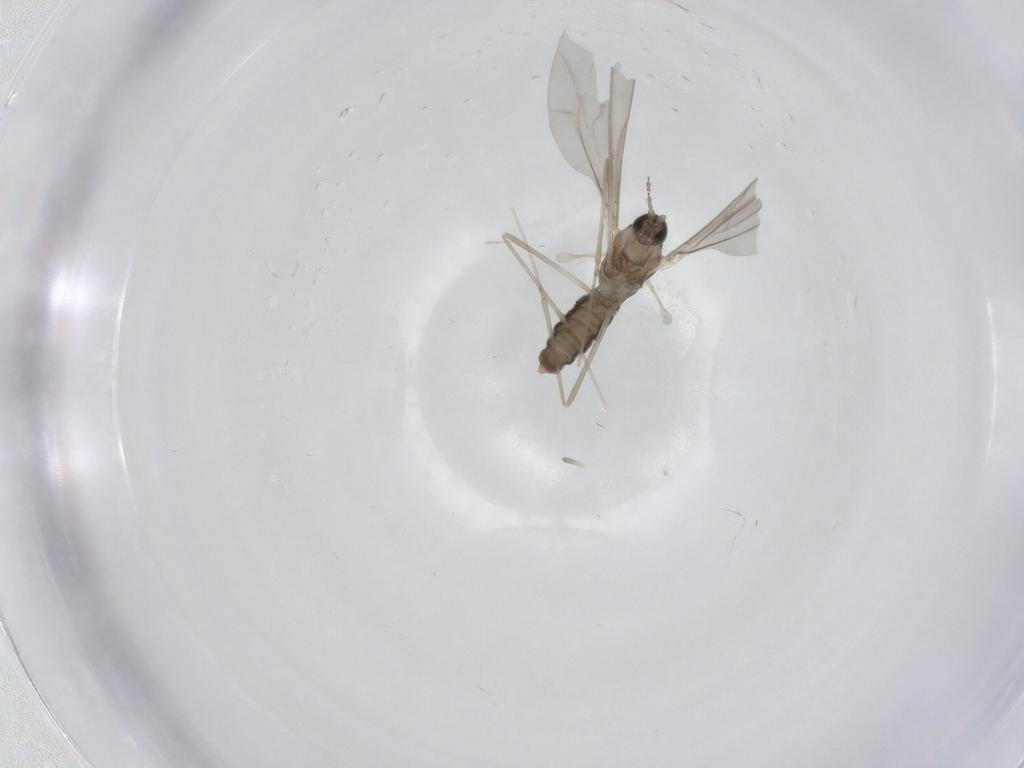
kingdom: Animalia
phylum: Arthropoda
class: Insecta
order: Diptera
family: Cecidomyiidae
